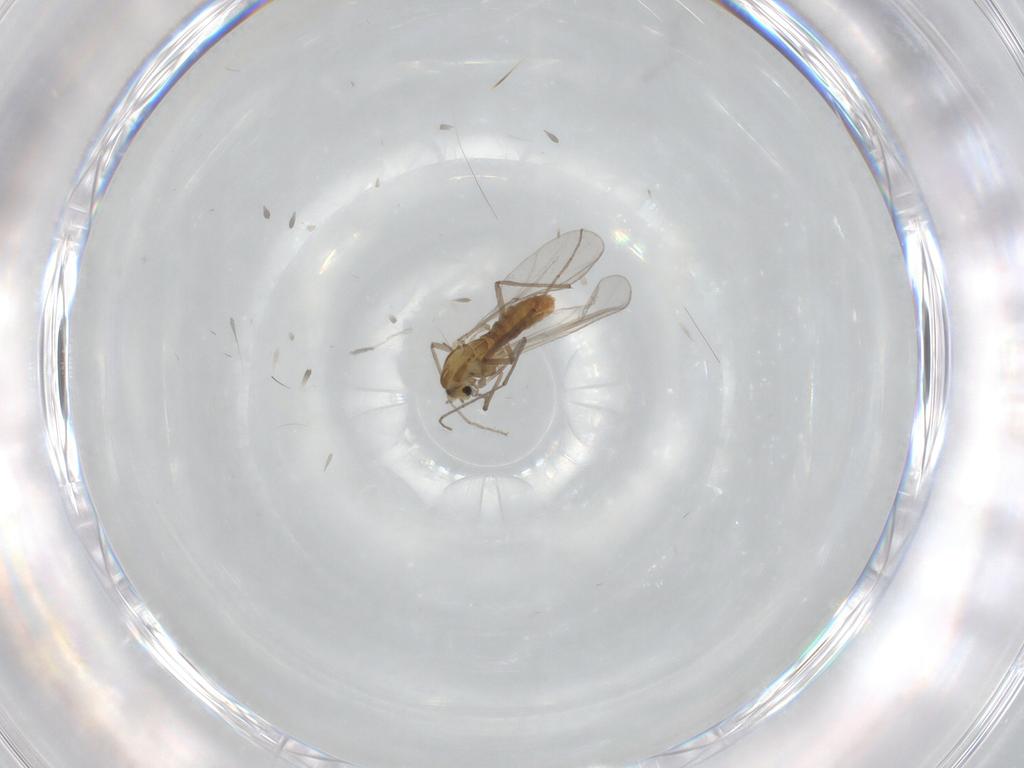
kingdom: Animalia
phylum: Arthropoda
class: Insecta
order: Diptera
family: Chironomidae
